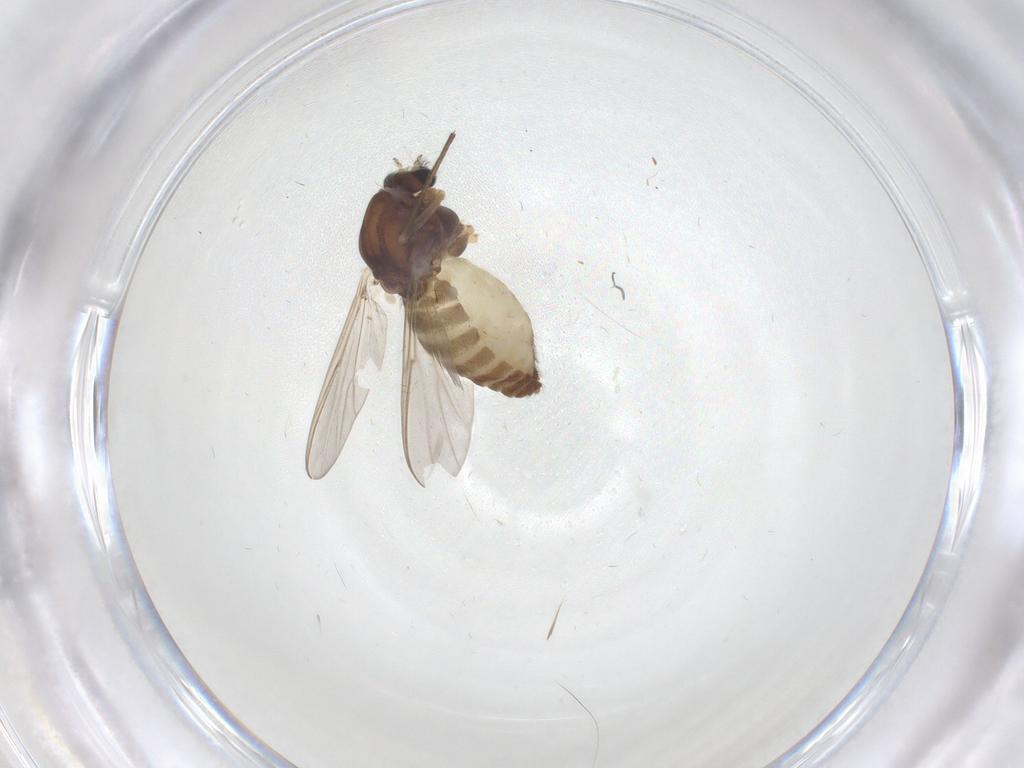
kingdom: Animalia
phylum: Arthropoda
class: Insecta
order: Diptera
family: Chironomidae
